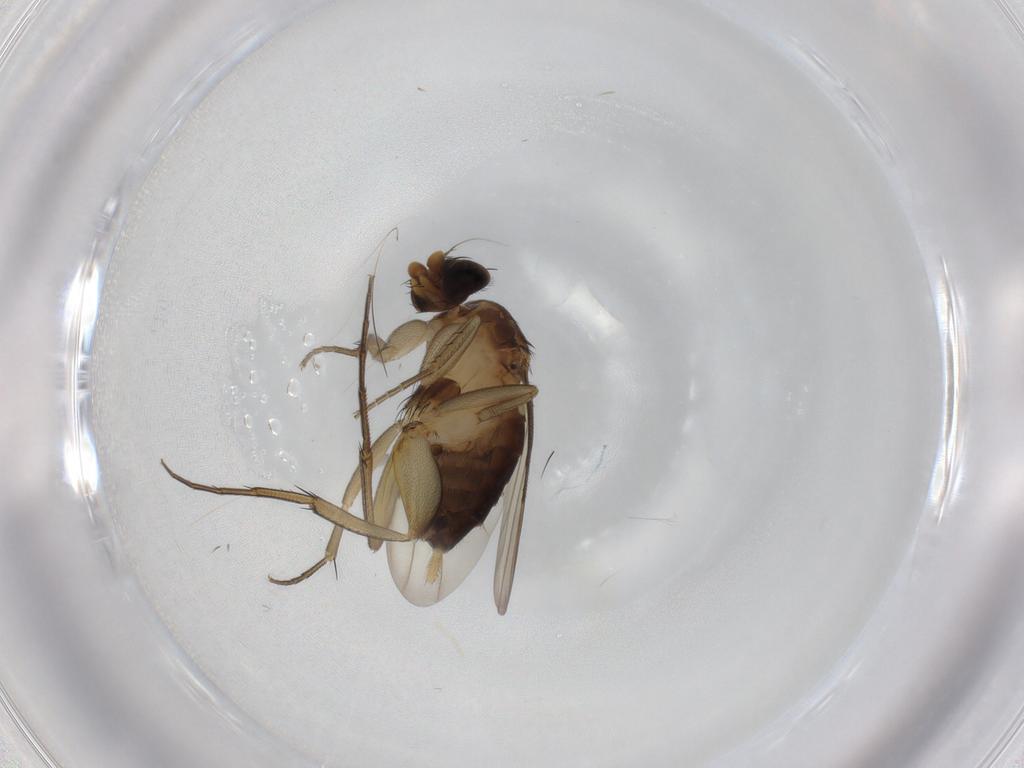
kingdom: Animalia
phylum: Arthropoda
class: Insecta
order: Diptera
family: Phoridae
